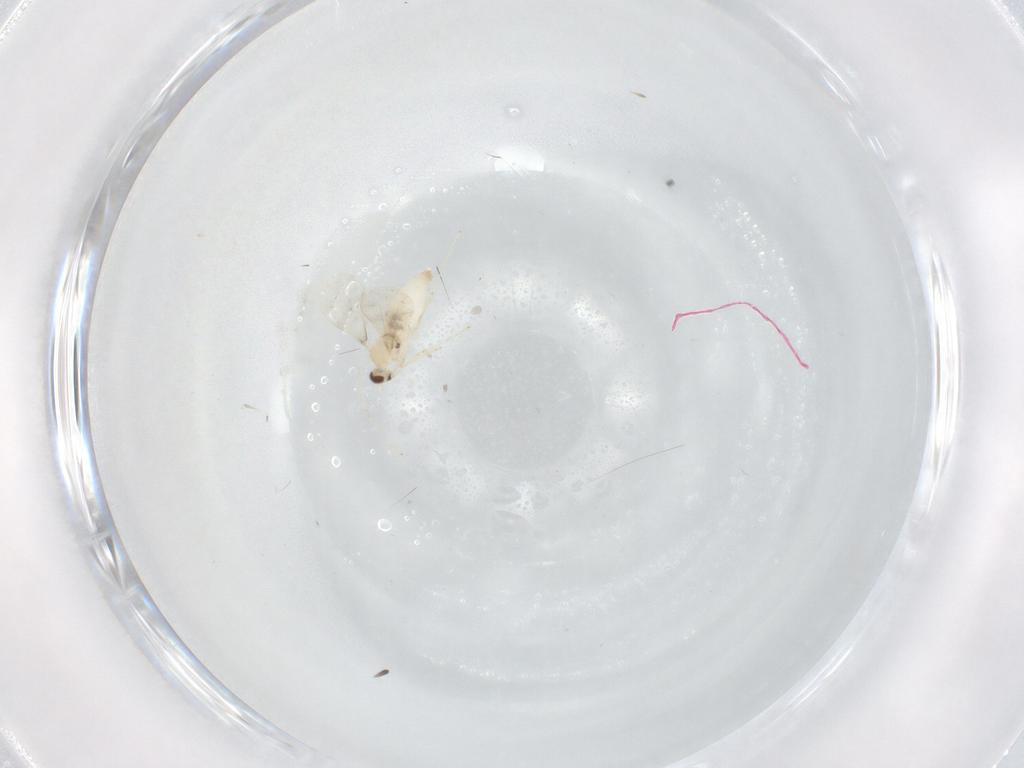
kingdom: Animalia
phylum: Arthropoda
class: Insecta
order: Diptera
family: Cecidomyiidae
